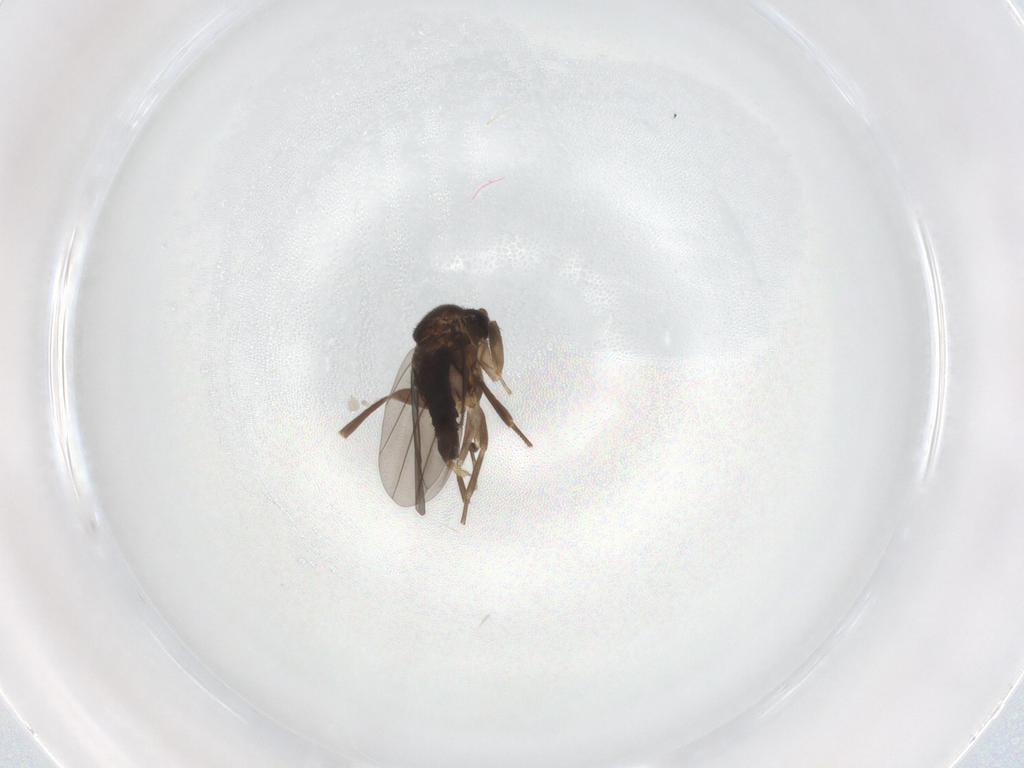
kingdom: Animalia
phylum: Arthropoda
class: Insecta
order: Diptera
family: Phoridae
